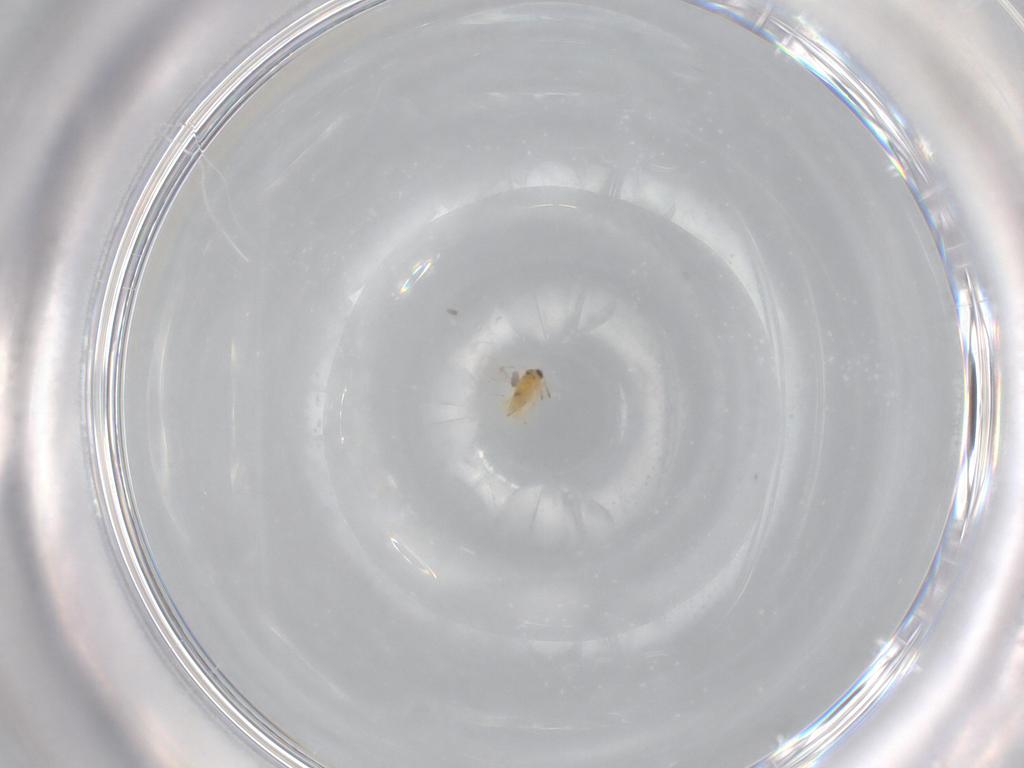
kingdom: Animalia
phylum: Arthropoda
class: Insecta
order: Hymenoptera
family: Aphelinidae
